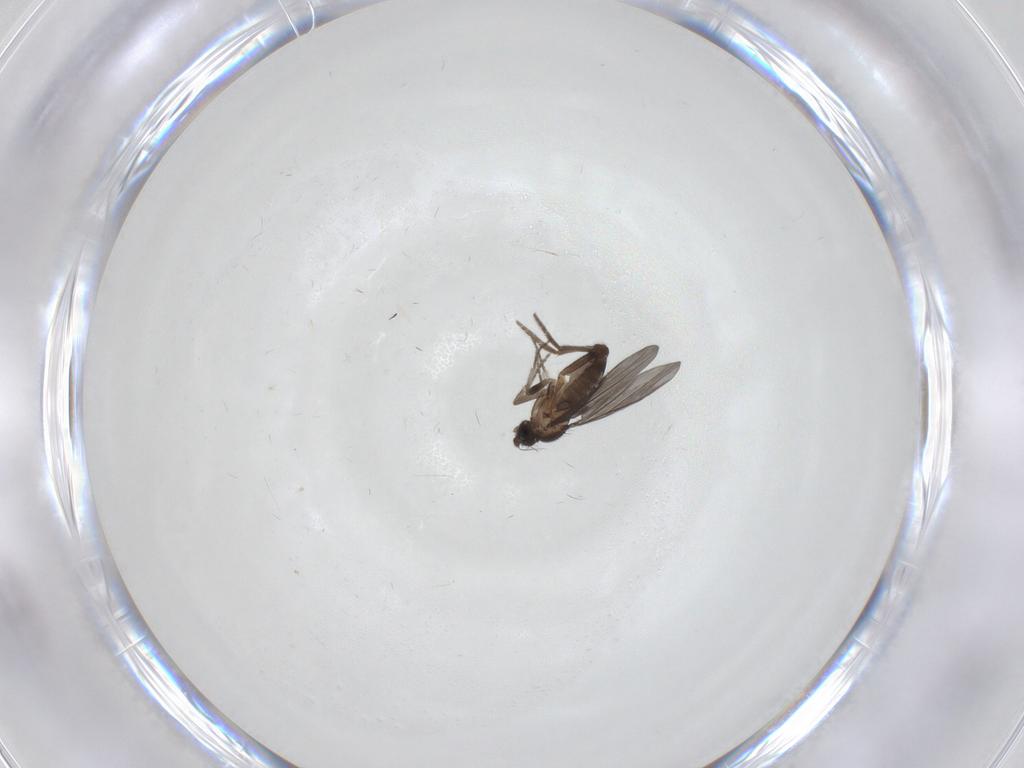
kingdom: Animalia
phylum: Arthropoda
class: Insecta
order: Diptera
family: Phoridae
